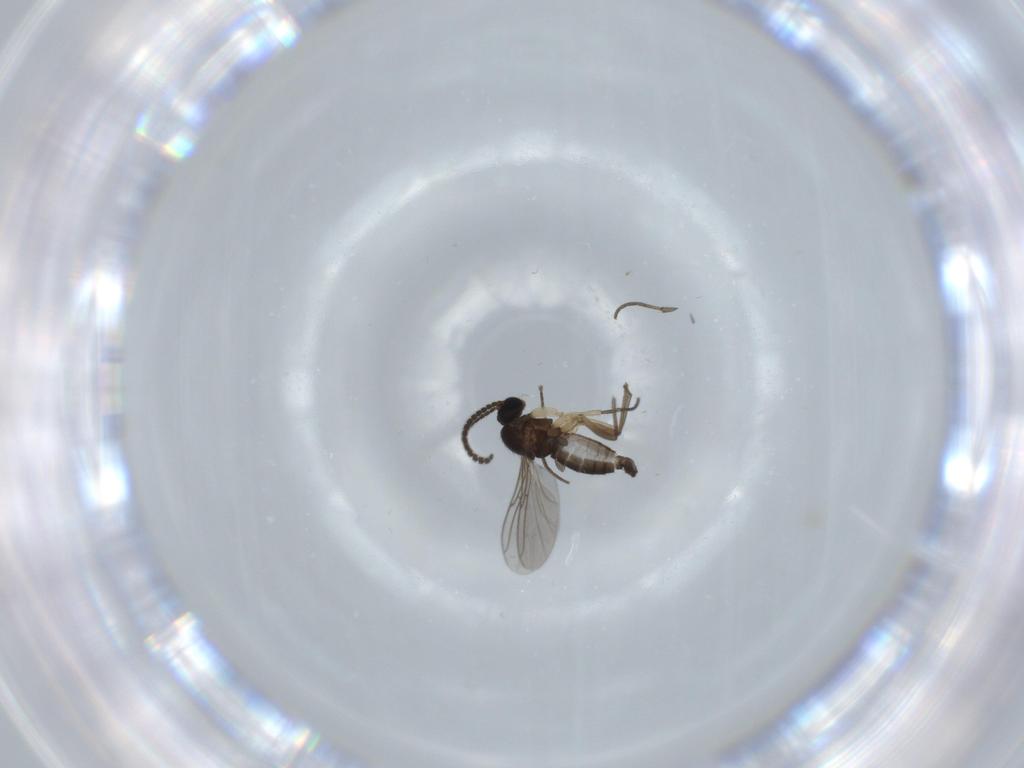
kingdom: Animalia
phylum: Arthropoda
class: Insecta
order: Diptera
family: Sciaridae
